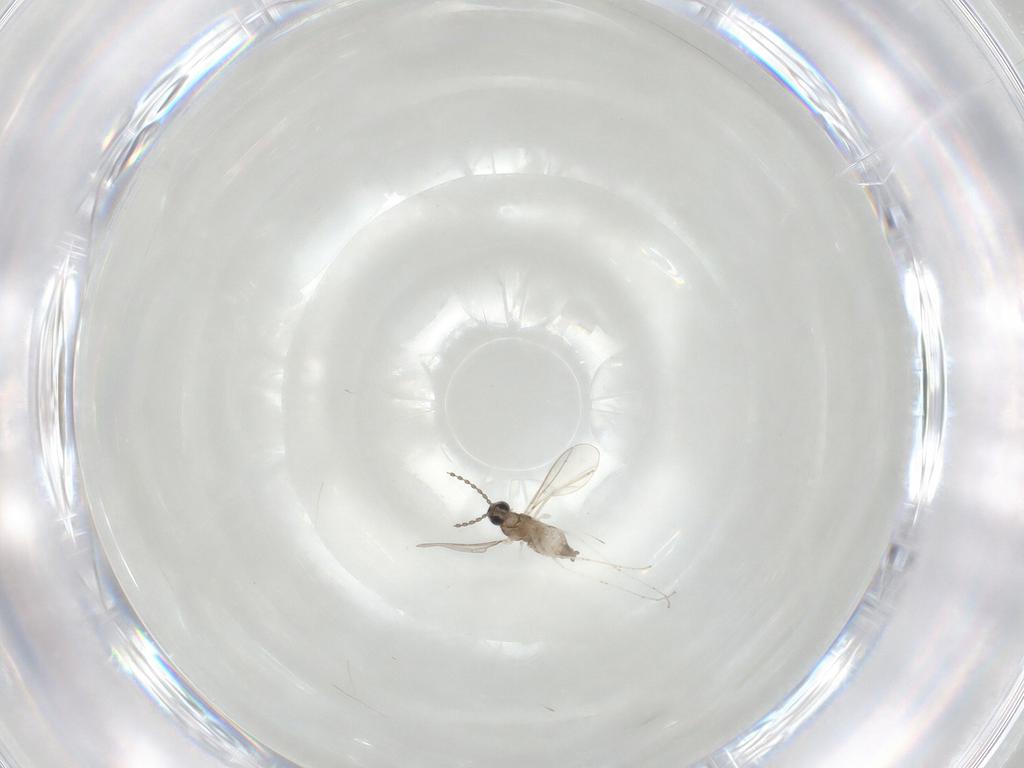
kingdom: Animalia
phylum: Arthropoda
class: Insecta
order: Diptera
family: Cecidomyiidae
